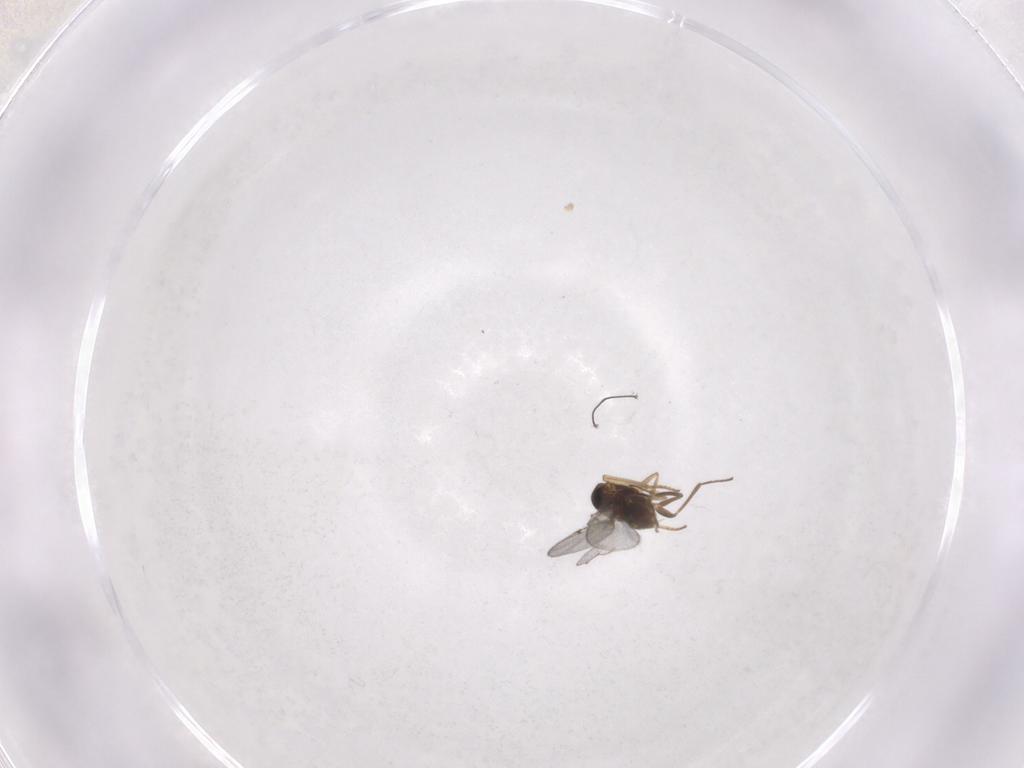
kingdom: Animalia
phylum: Arthropoda
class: Insecta
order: Hymenoptera
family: Encyrtidae
